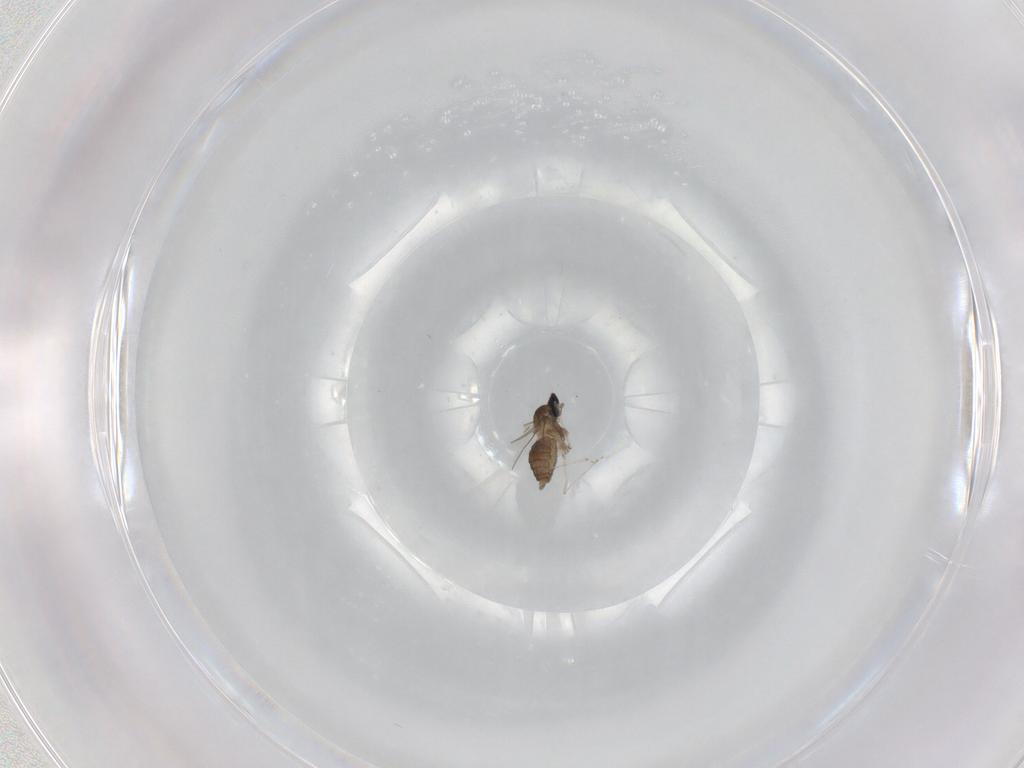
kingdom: Animalia
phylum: Arthropoda
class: Insecta
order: Diptera
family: Cecidomyiidae
